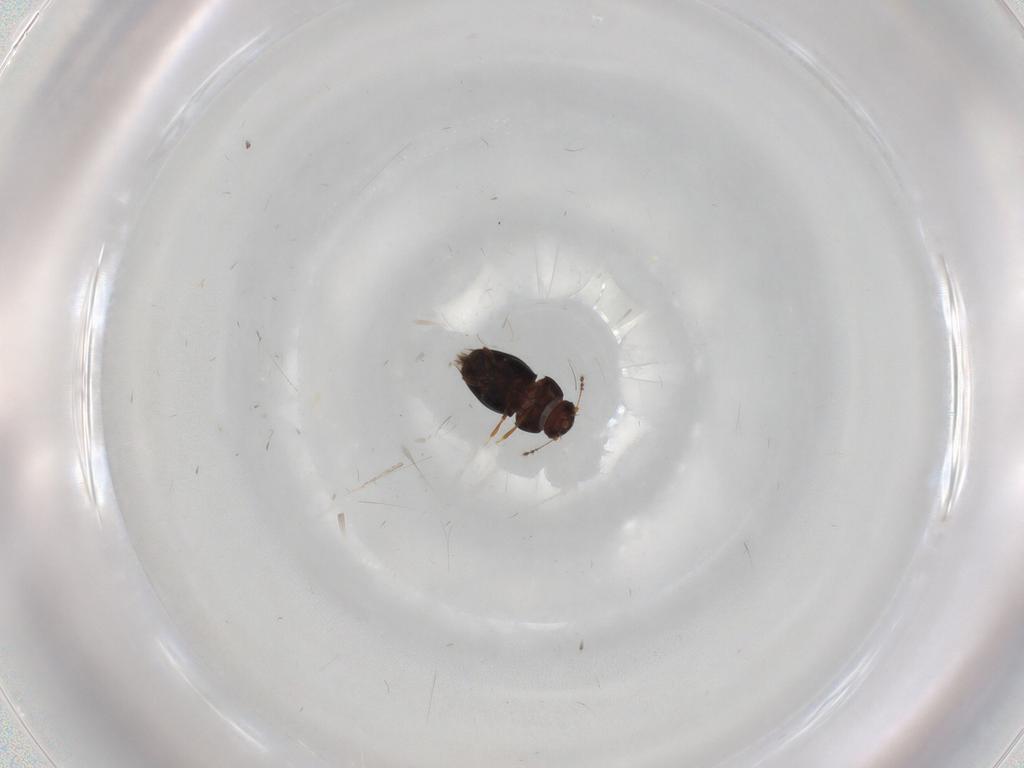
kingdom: Animalia
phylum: Arthropoda
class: Insecta
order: Coleoptera
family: Ptiliidae
